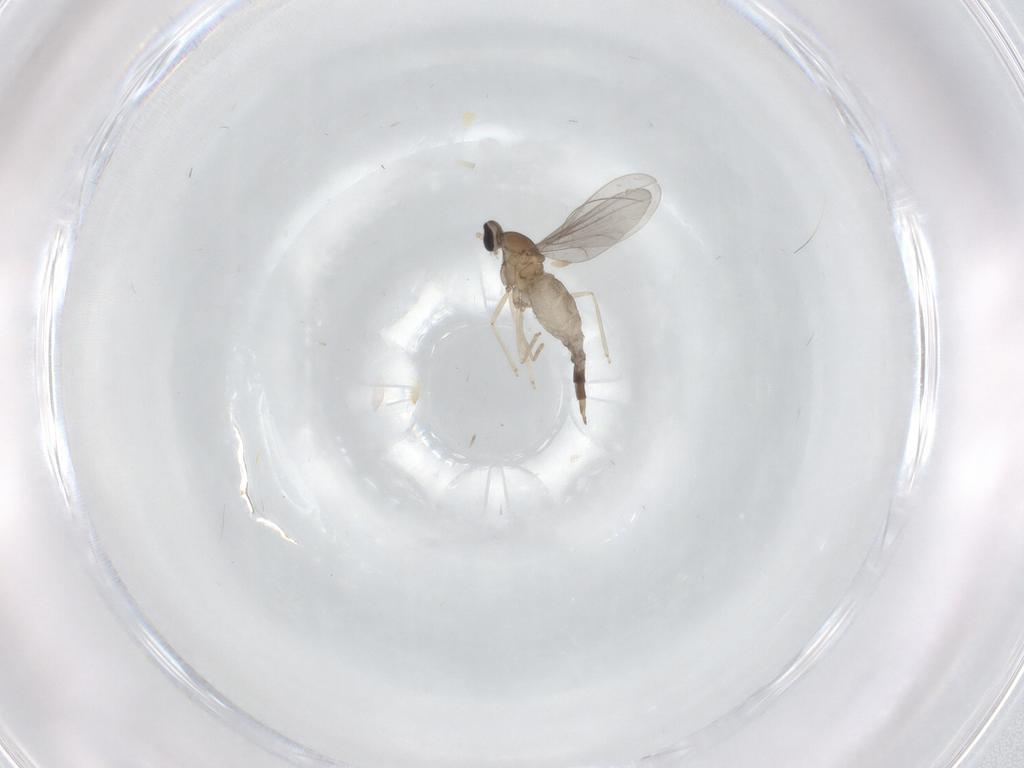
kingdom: Animalia
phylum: Arthropoda
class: Insecta
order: Diptera
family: Cecidomyiidae
